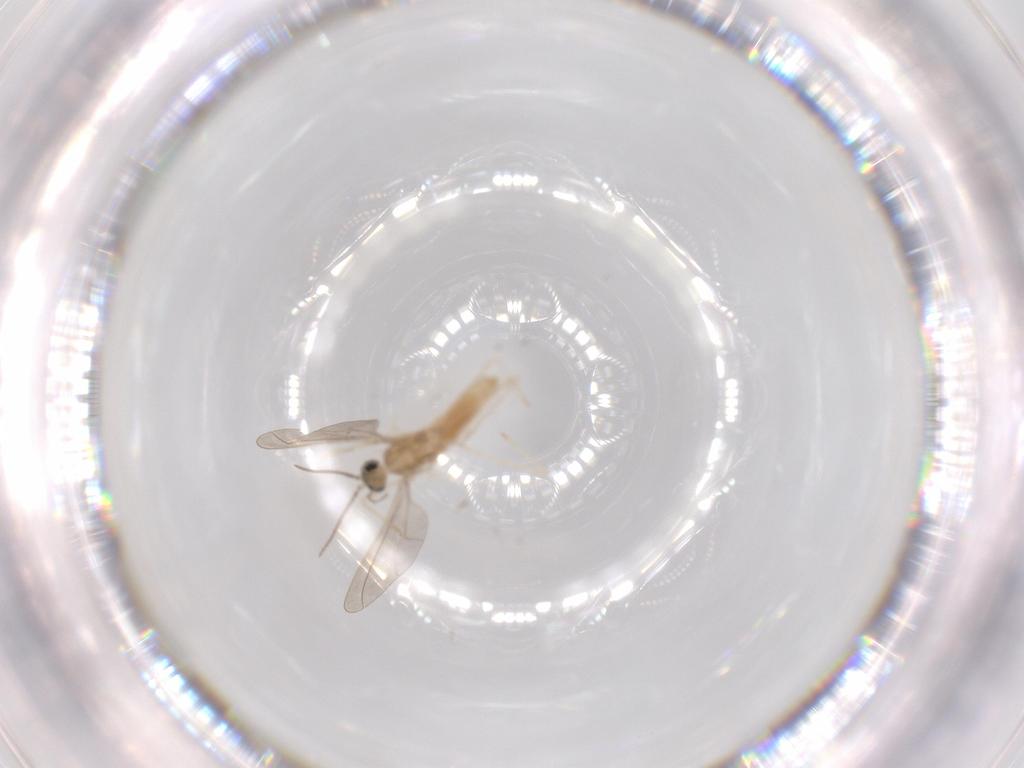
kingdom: Animalia
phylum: Arthropoda
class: Insecta
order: Diptera
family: Cecidomyiidae
